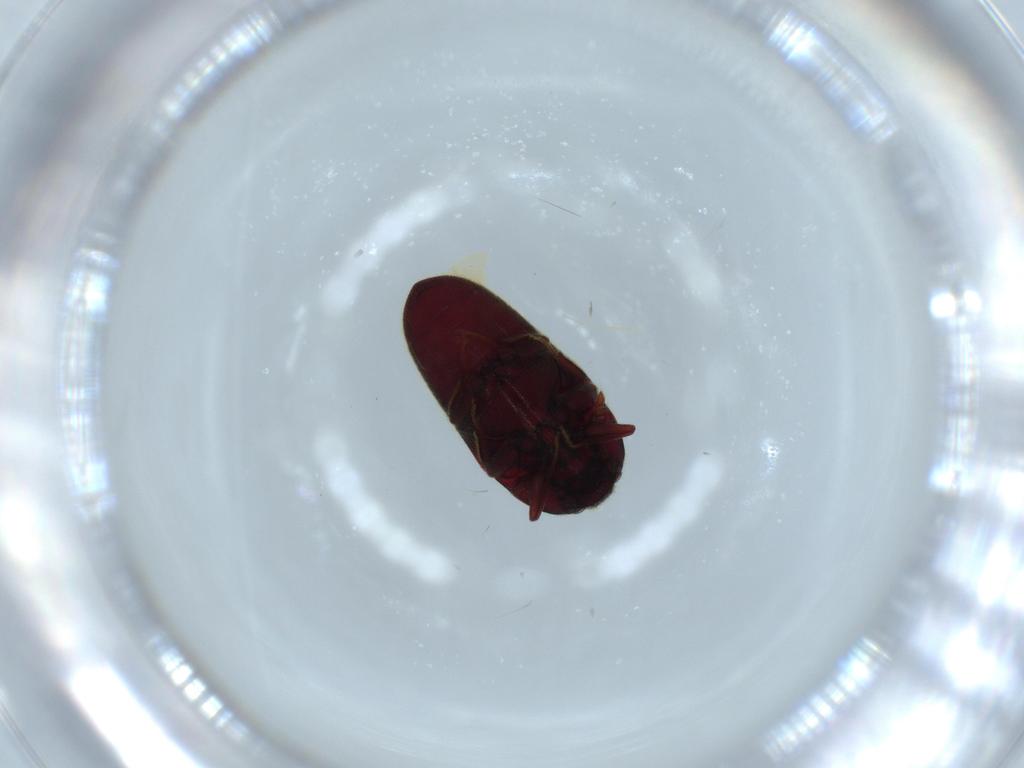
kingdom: Animalia
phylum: Arthropoda
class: Insecta
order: Coleoptera
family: Throscidae
